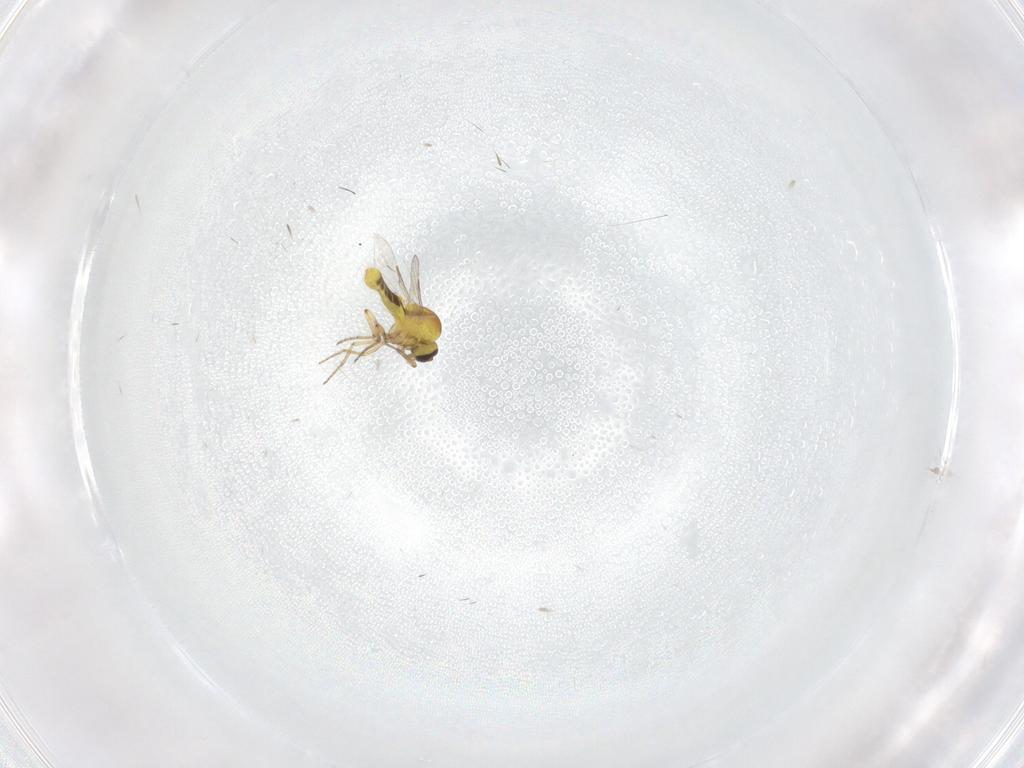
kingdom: Animalia
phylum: Arthropoda
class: Insecta
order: Diptera
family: Ceratopogonidae
